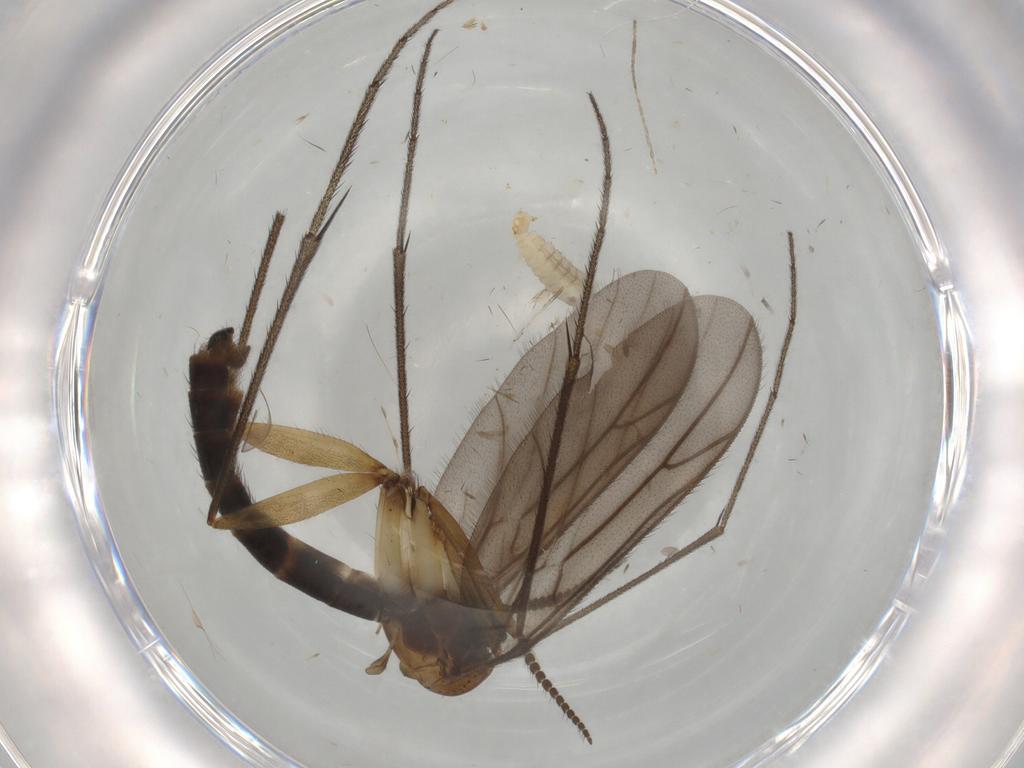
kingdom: Animalia
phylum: Arthropoda
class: Insecta
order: Diptera
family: Ditomyiidae
